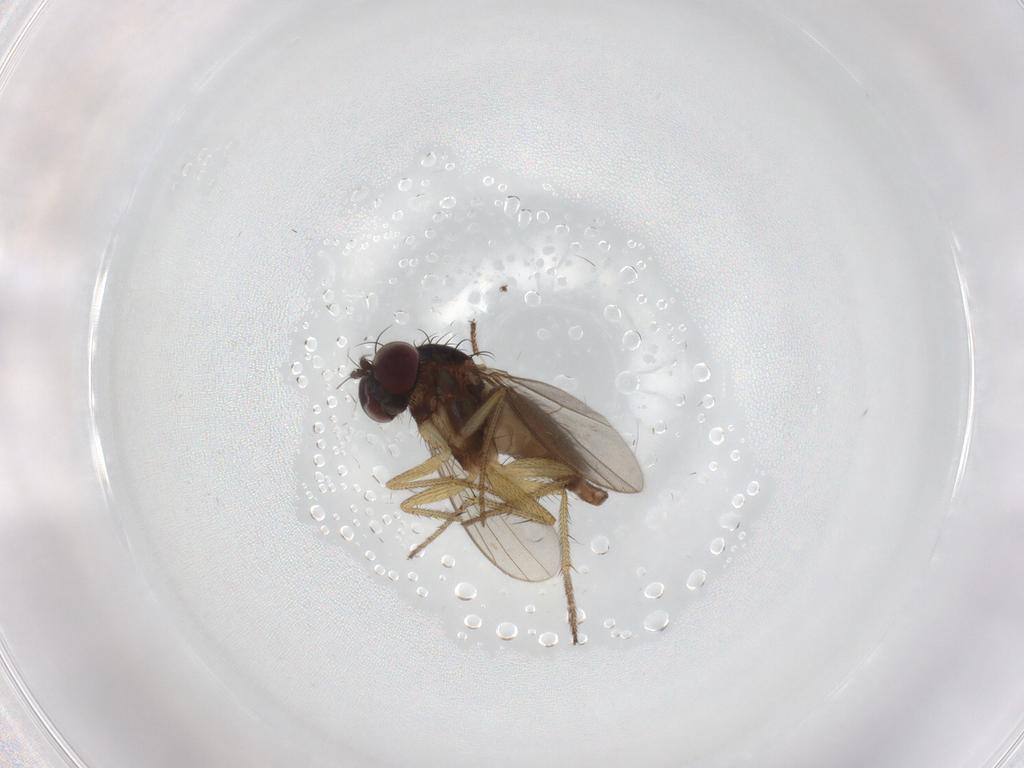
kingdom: Animalia
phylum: Arthropoda
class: Insecta
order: Diptera
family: Dolichopodidae
